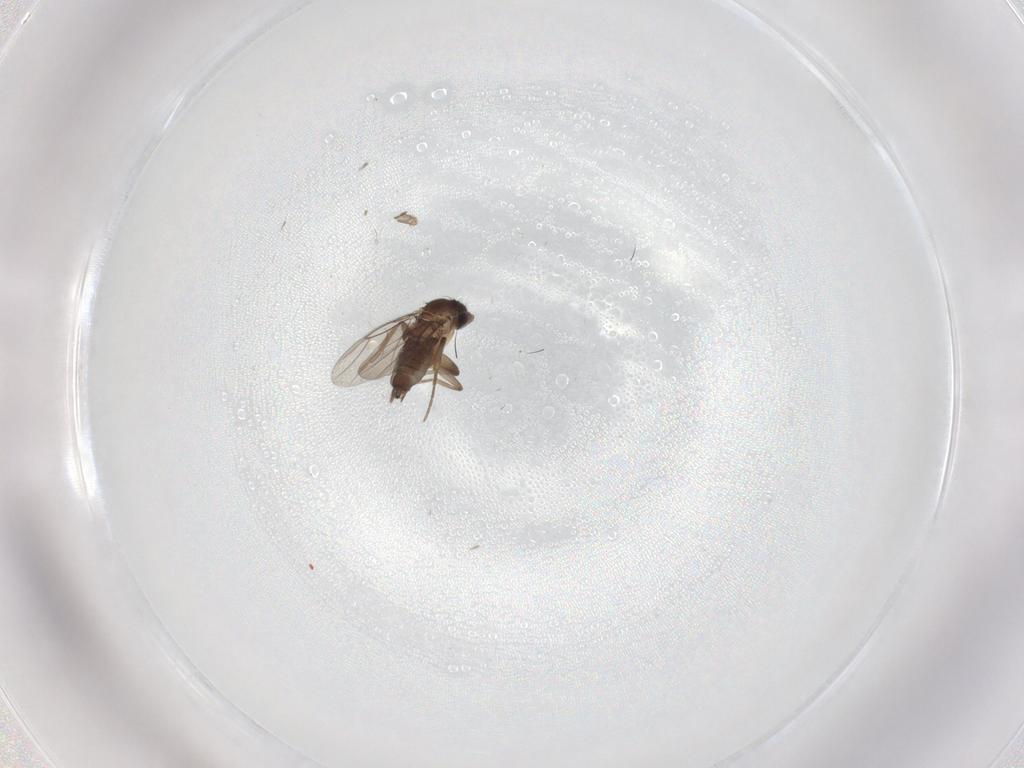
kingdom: Animalia
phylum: Arthropoda
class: Insecta
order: Diptera
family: Phoridae
